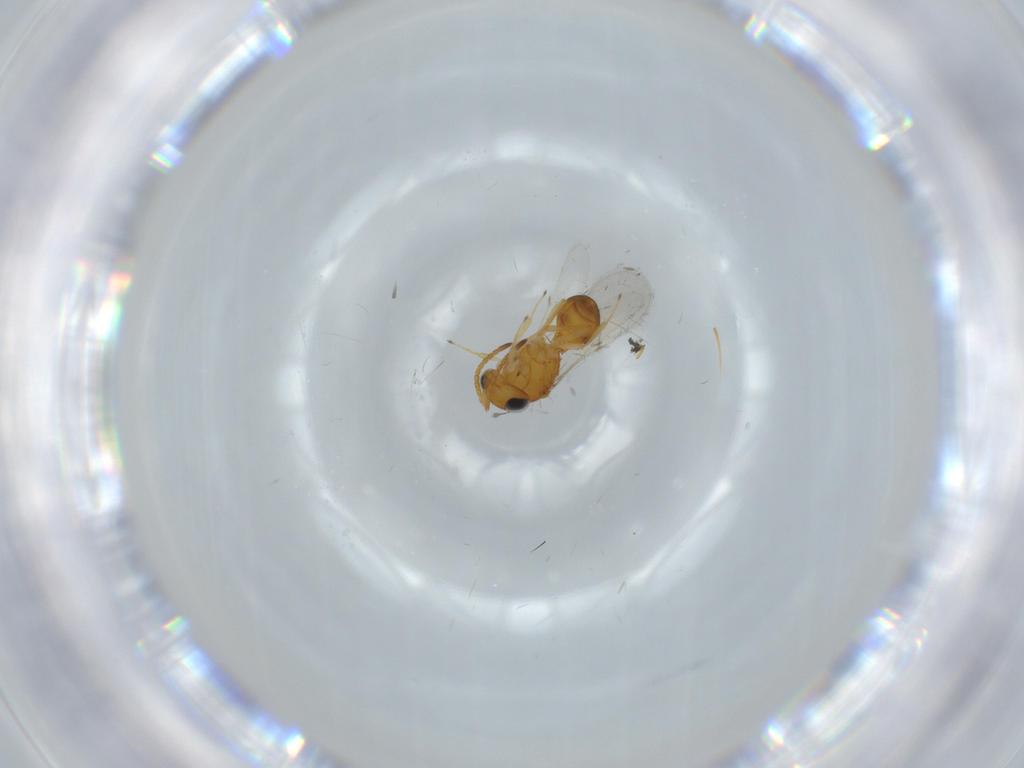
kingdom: Animalia
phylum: Arthropoda
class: Insecta
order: Hymenoptera
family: Scelionidae
